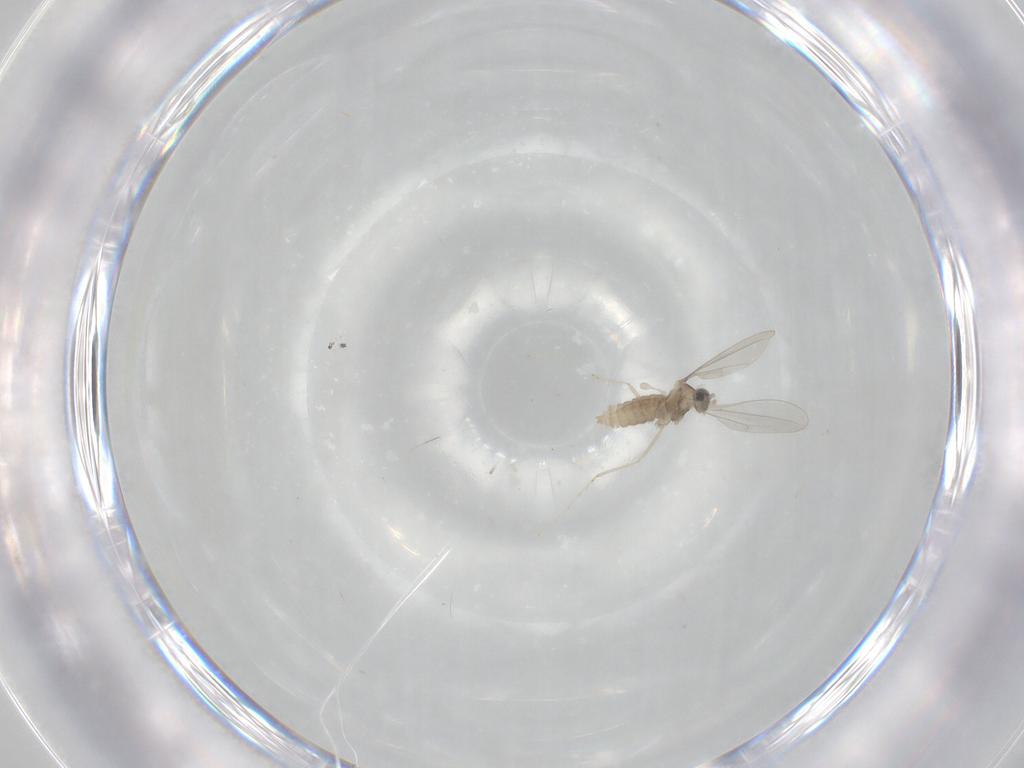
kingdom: Animalia
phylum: Arthropoda
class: Insecta
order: Diptera
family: Cecidomyiidae
